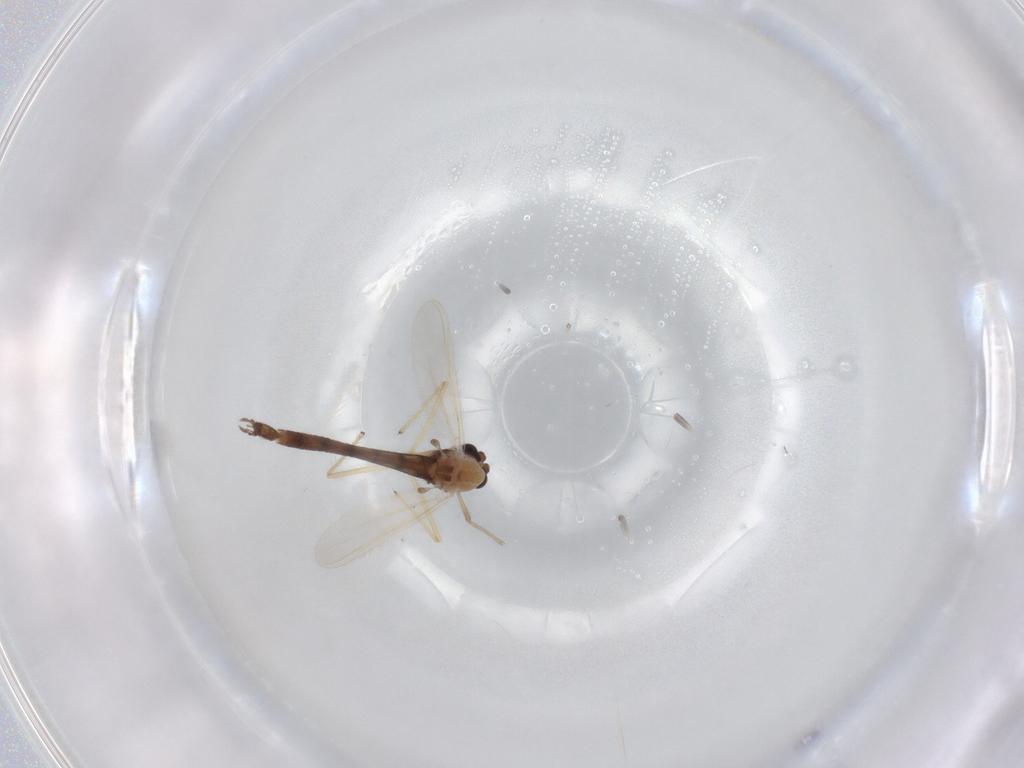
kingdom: Animalia
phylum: Arthropoda
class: Insecta
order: Diptera
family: Chironomidae
